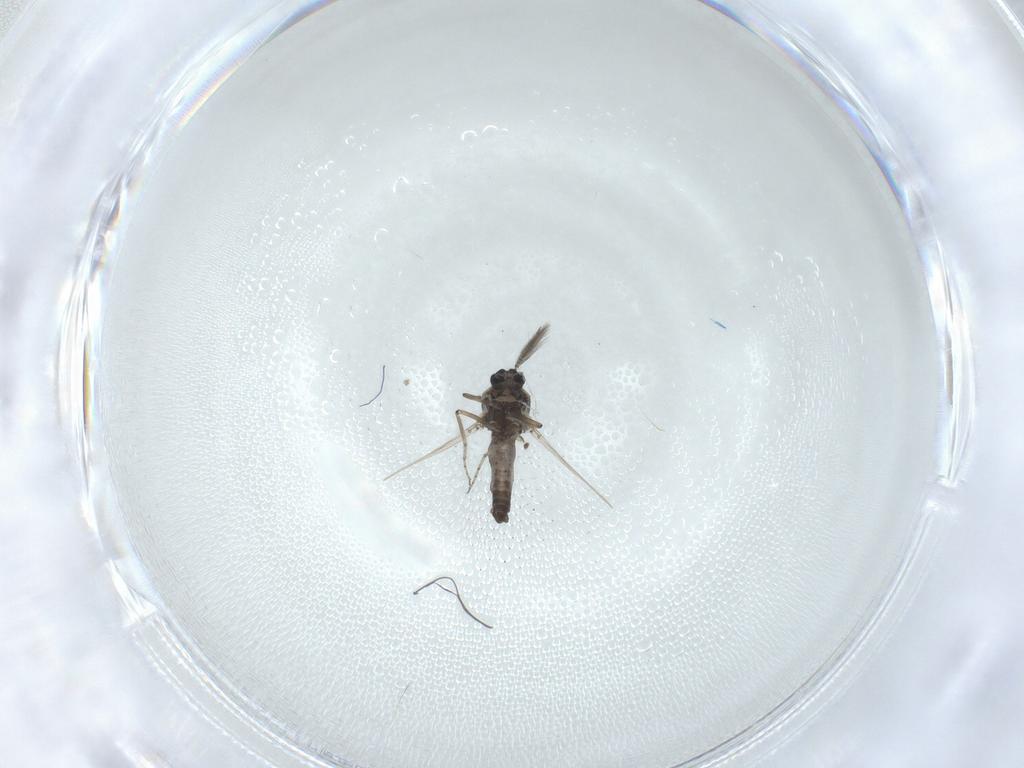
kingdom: Animalia
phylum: Arthropoda
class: Insecta
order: Diptera
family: Ceratopogonidae
